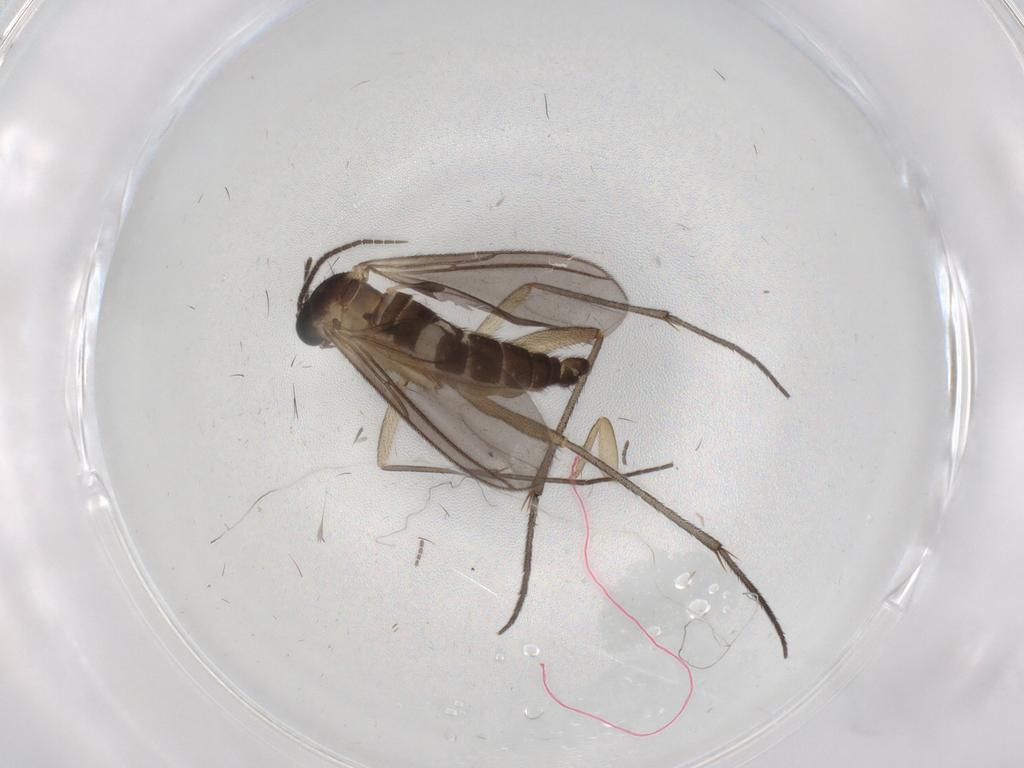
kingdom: Animalia
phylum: Arthropoda
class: Insecta
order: Diptera
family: Sciaridae
